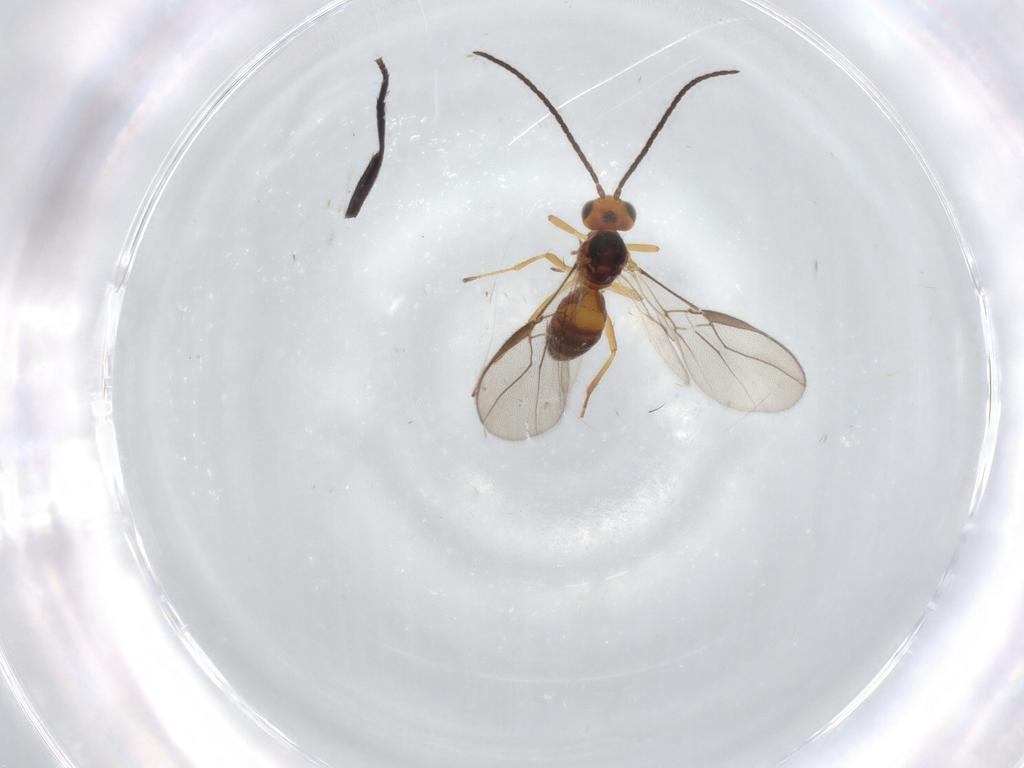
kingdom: Animalia
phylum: Arthropoda
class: Insecta
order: Hymenoptera
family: Braconidae
